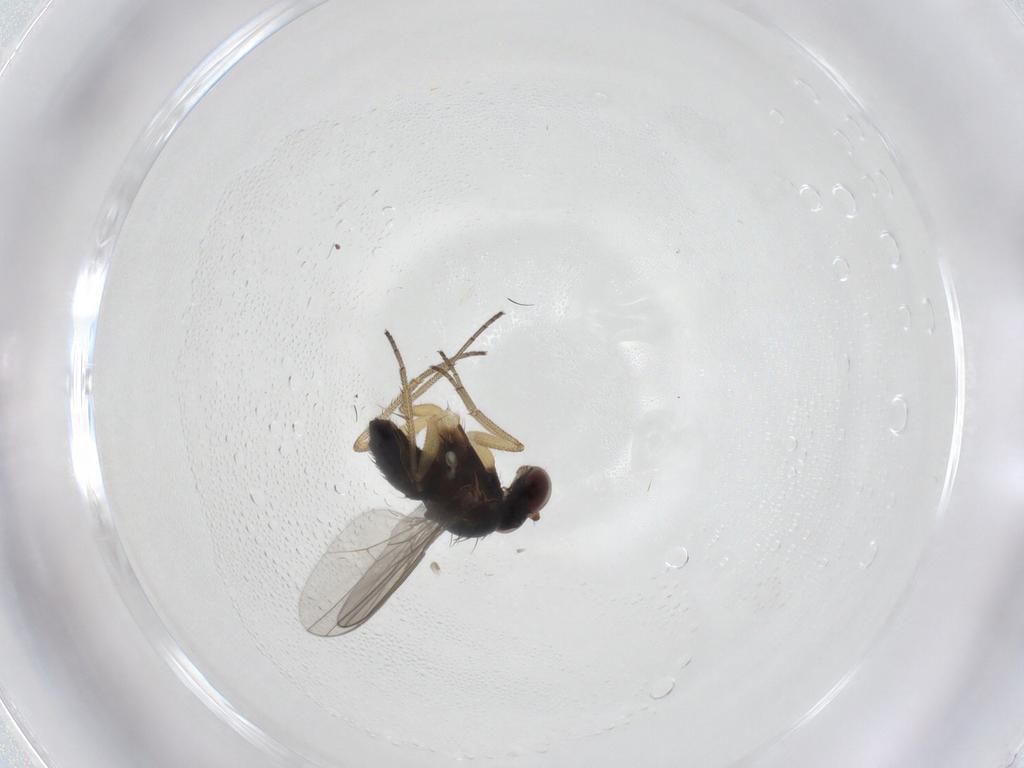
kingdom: Animalia
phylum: Arthropoda
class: Insecta
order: Diptera
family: Dolichopodidae
